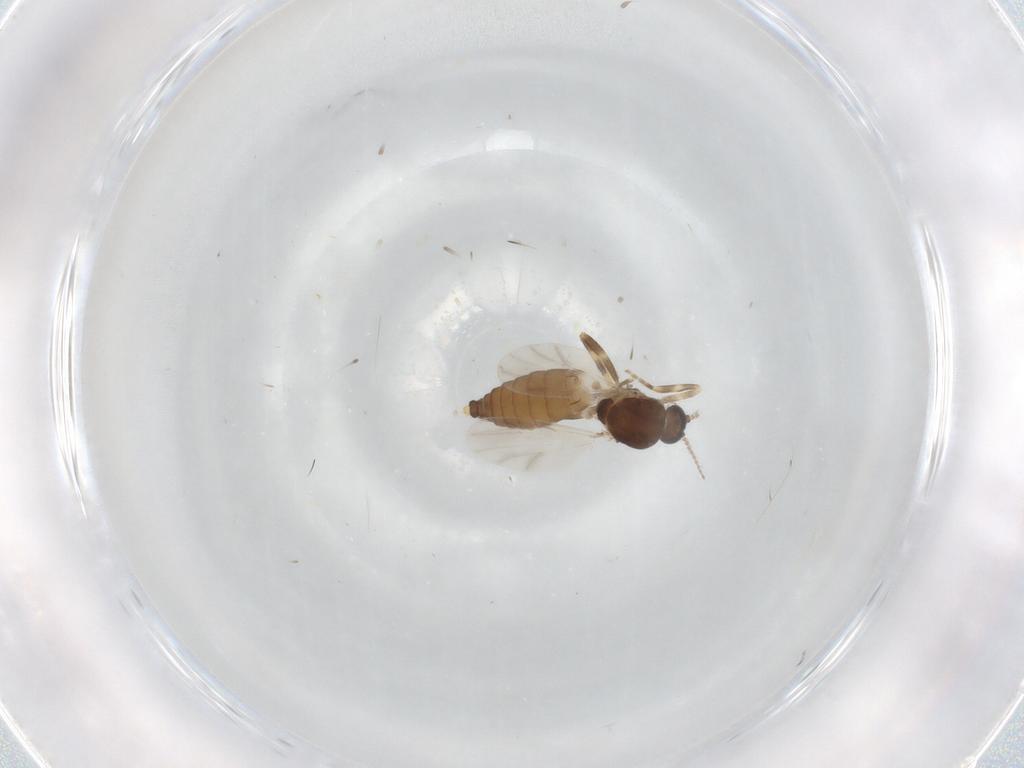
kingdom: Animalia
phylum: Arthropoda
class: Insecta
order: Diptera
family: Ceratopogonidae
